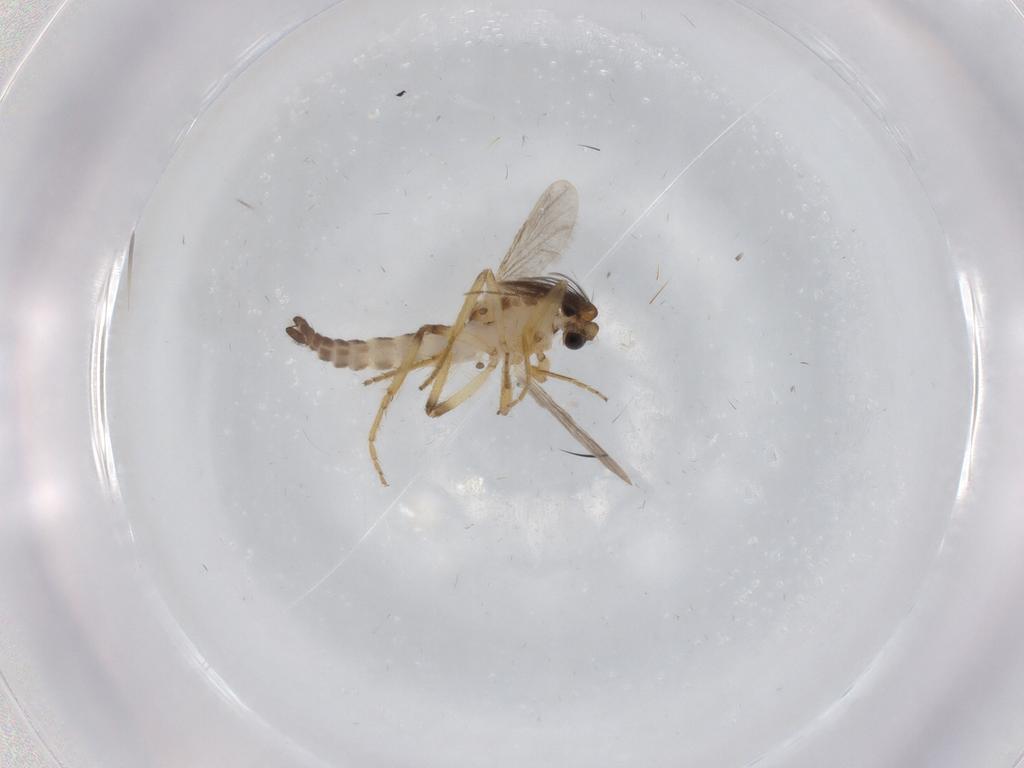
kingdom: Animalia
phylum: Arthropoda
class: Insecta
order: Diptera
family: Ceratopogonidae
